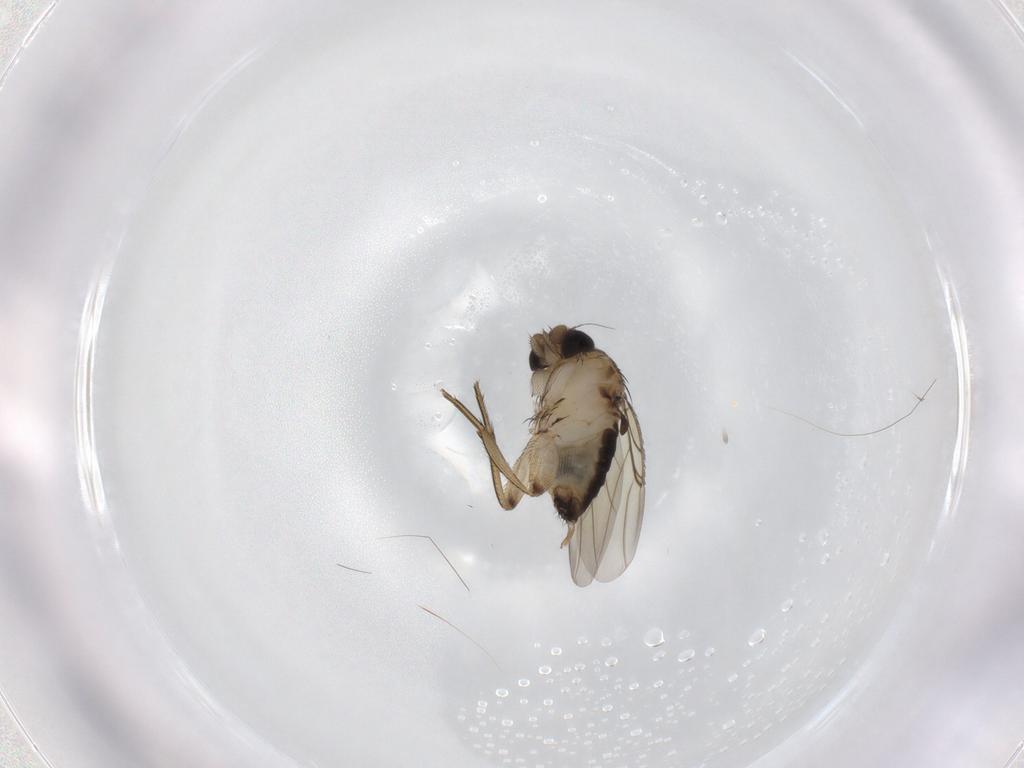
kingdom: Animalia
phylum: Arthropoda
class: Insecta
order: Diptera
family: Phoridae
